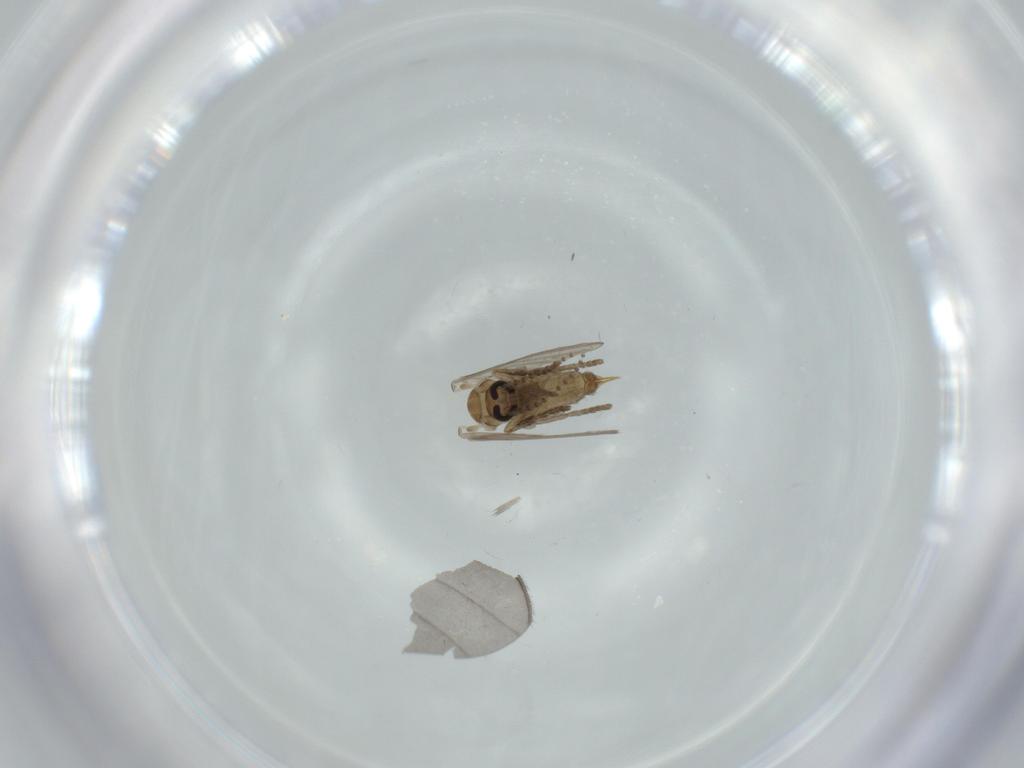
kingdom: Animalia
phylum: Arthropoda
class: Insecta
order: Diptera
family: Psychodidae
